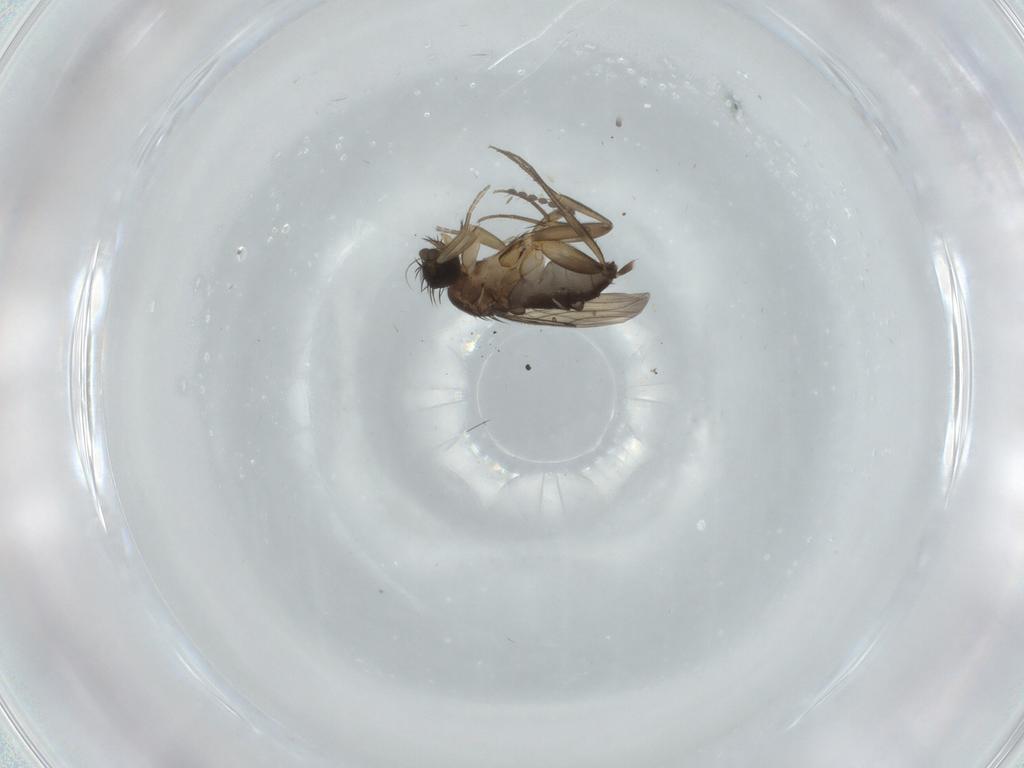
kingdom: Animalia
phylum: Arthropoda
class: Insecta
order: Diptera
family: Phoridae
